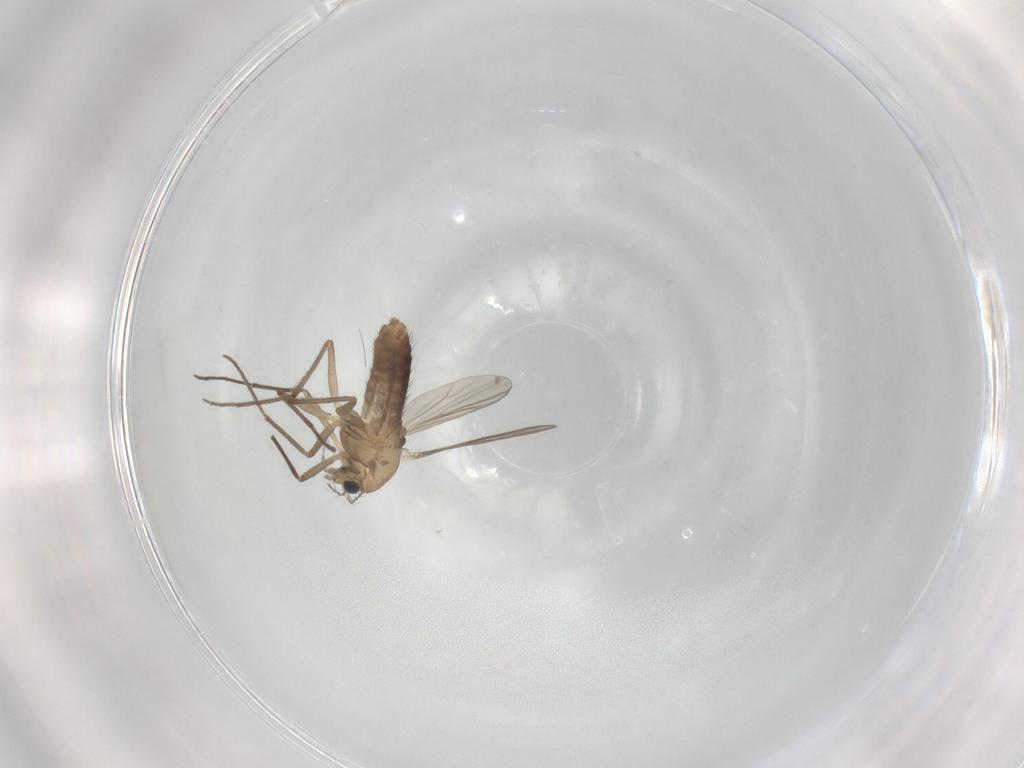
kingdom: Animalia
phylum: Arthropoda
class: Insecta
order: Diptera
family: Chironomidae
